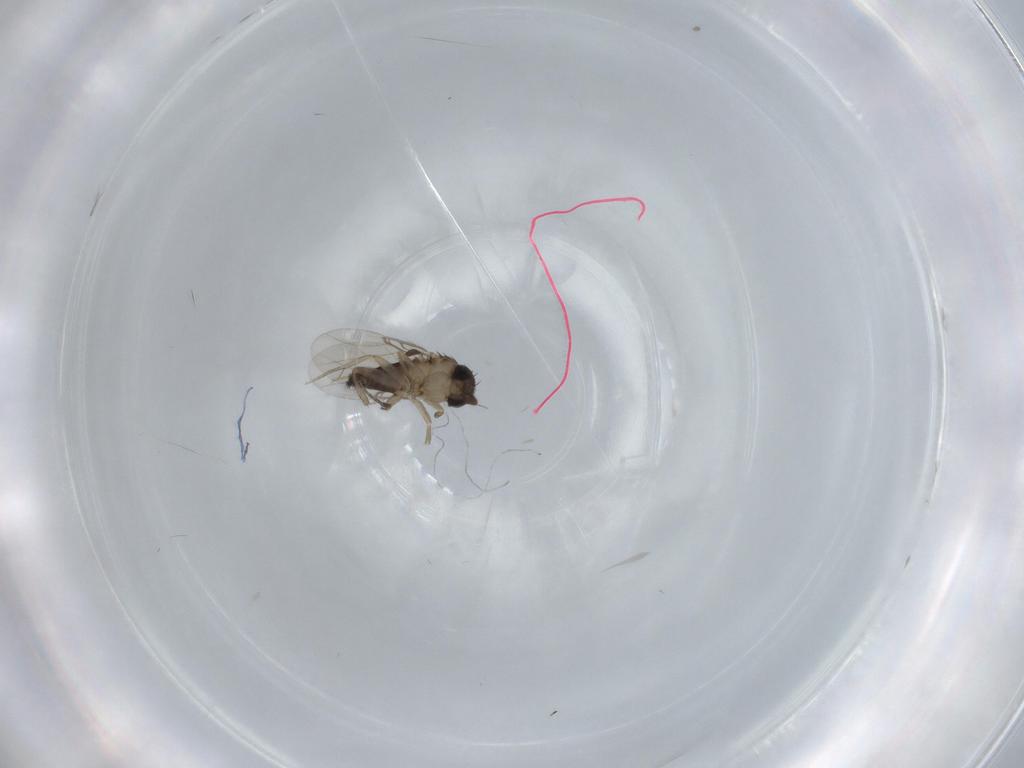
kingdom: Animalia
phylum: Arthropoda
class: Insecta
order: Diptera
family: Phoridae
